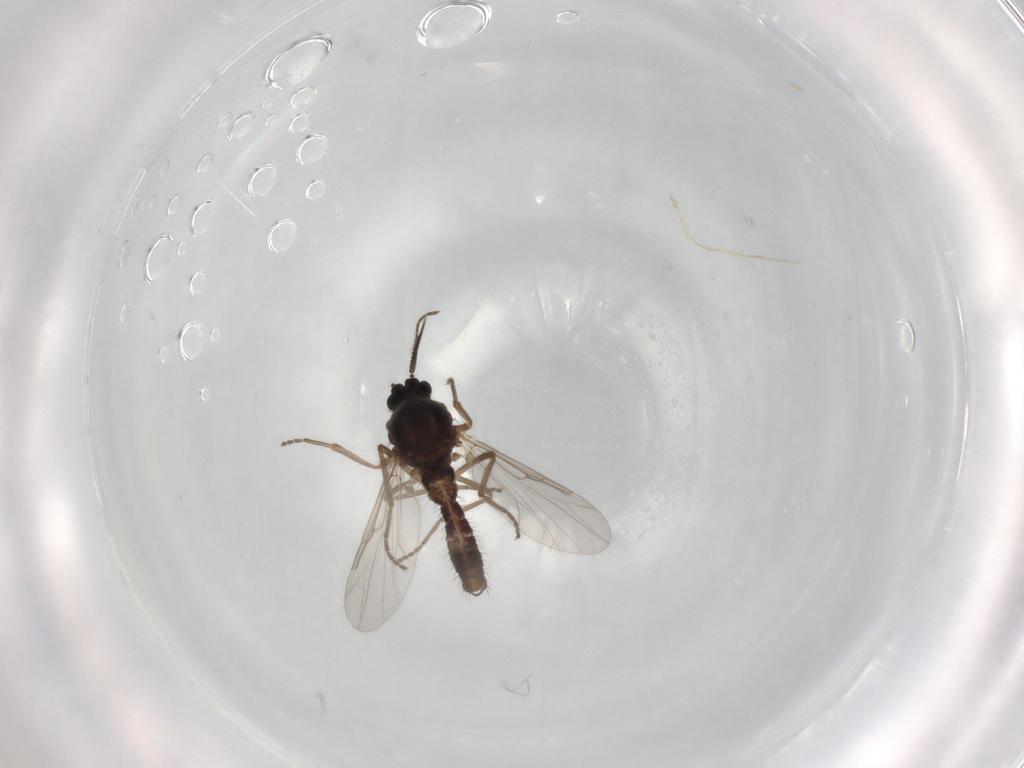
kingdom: Animalia
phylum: Arthropoda
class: Insecta
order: Diptera
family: Ceratopogonidae
